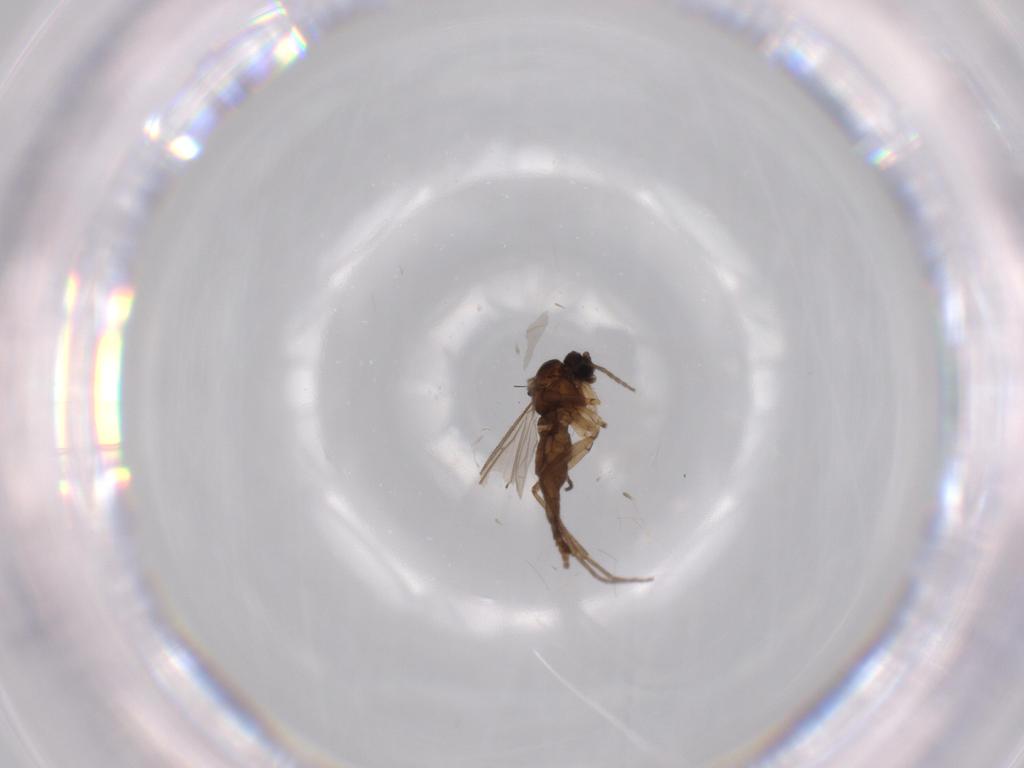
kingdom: Animalia
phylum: Arthropoda
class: Insecta
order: Diptera
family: Sciaridae
